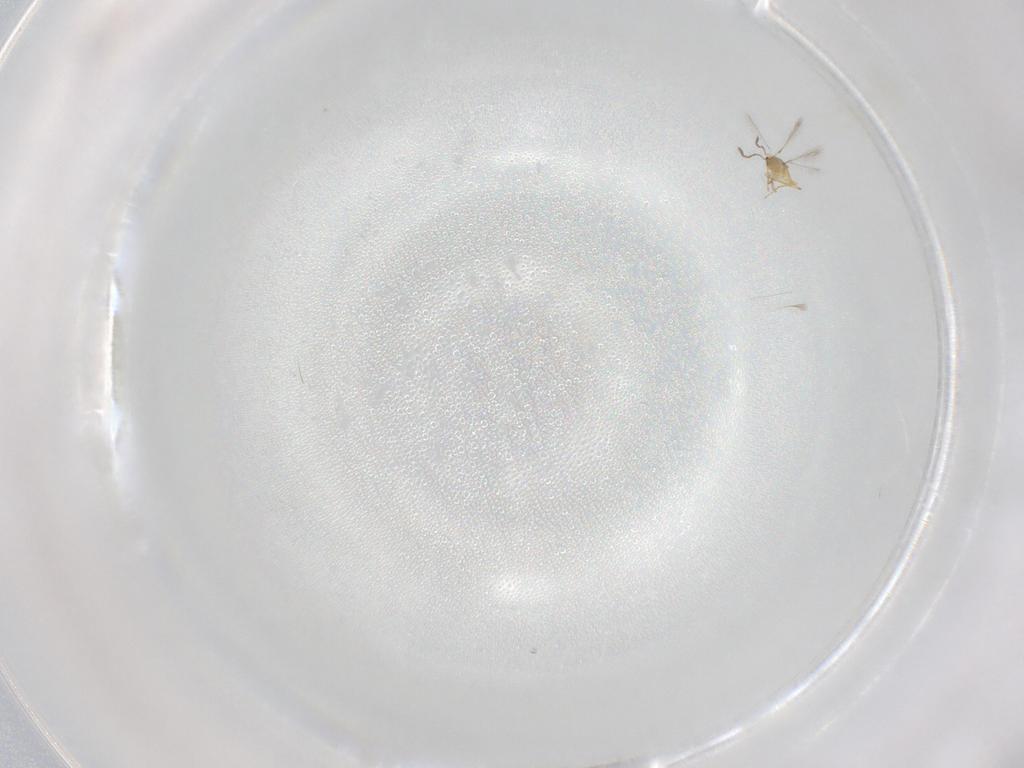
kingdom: Animalia
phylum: Arthropoda
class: Insecta
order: Hymenoptera
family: Mymaridae
